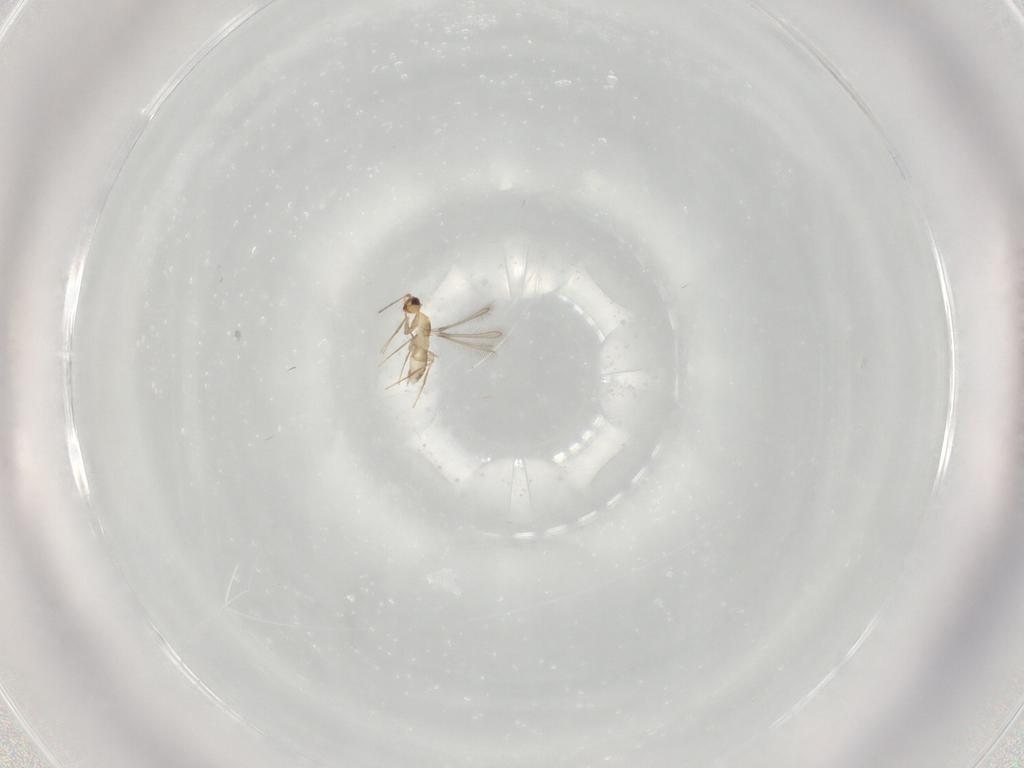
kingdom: Animalia
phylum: Arthropoda
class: Insecta
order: Hymenoptera
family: Mymaridae
